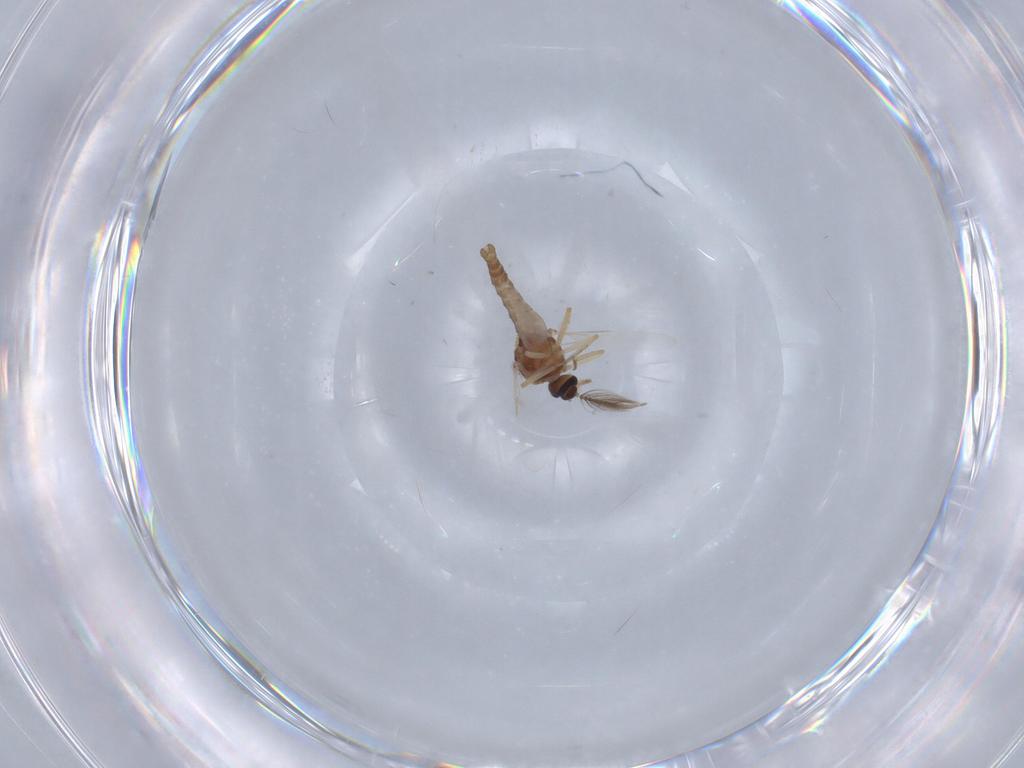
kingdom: Animalia
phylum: Arthropoda
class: Insecta
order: Diptera
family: Ceratopogonidae
